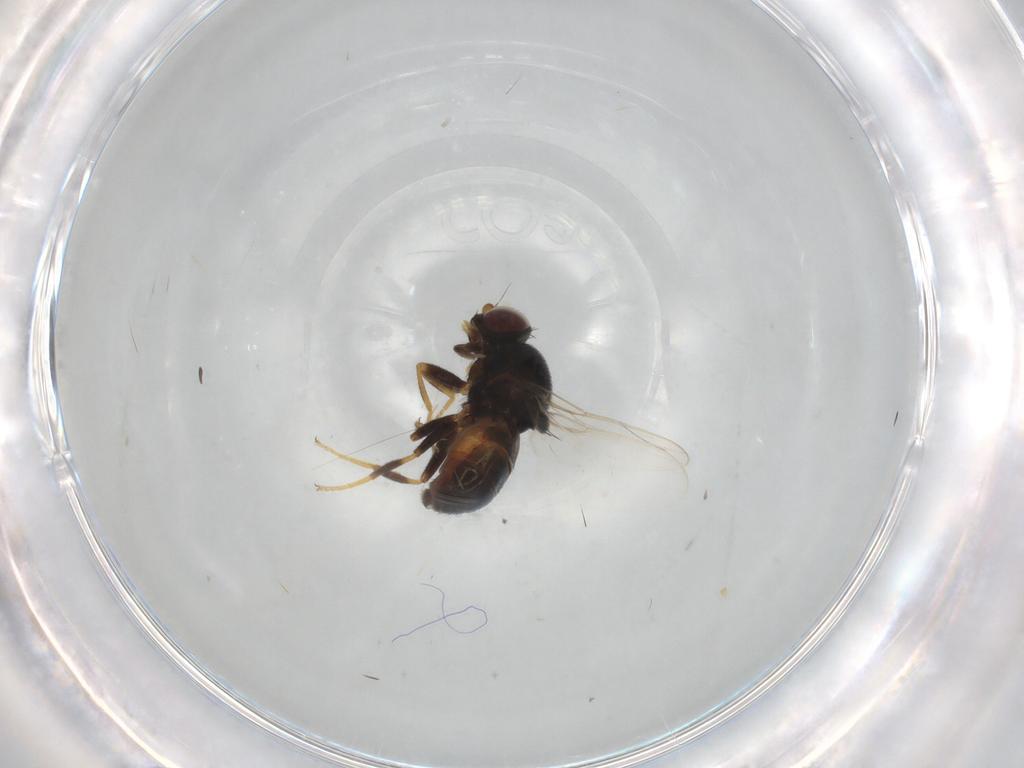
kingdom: Animalia
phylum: Arthropoda
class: Insecta
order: Diptera
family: Chloropidae
